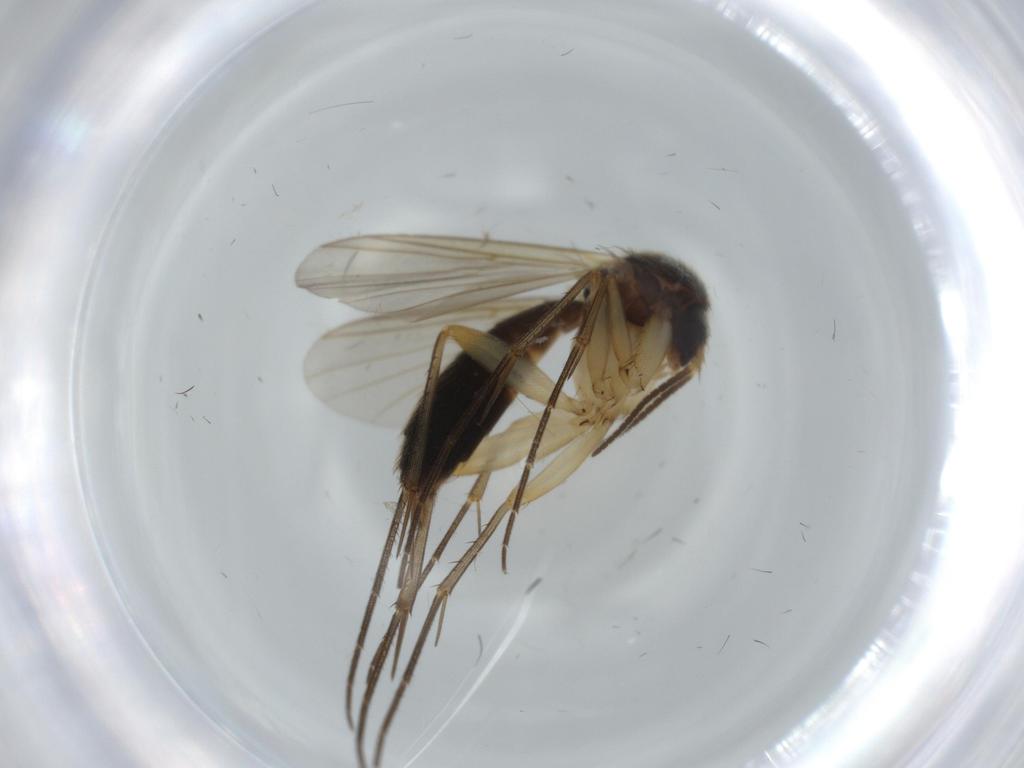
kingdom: Animalia
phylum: Arthropoda
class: Insecta
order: Diptera
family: Mycetophilidae
